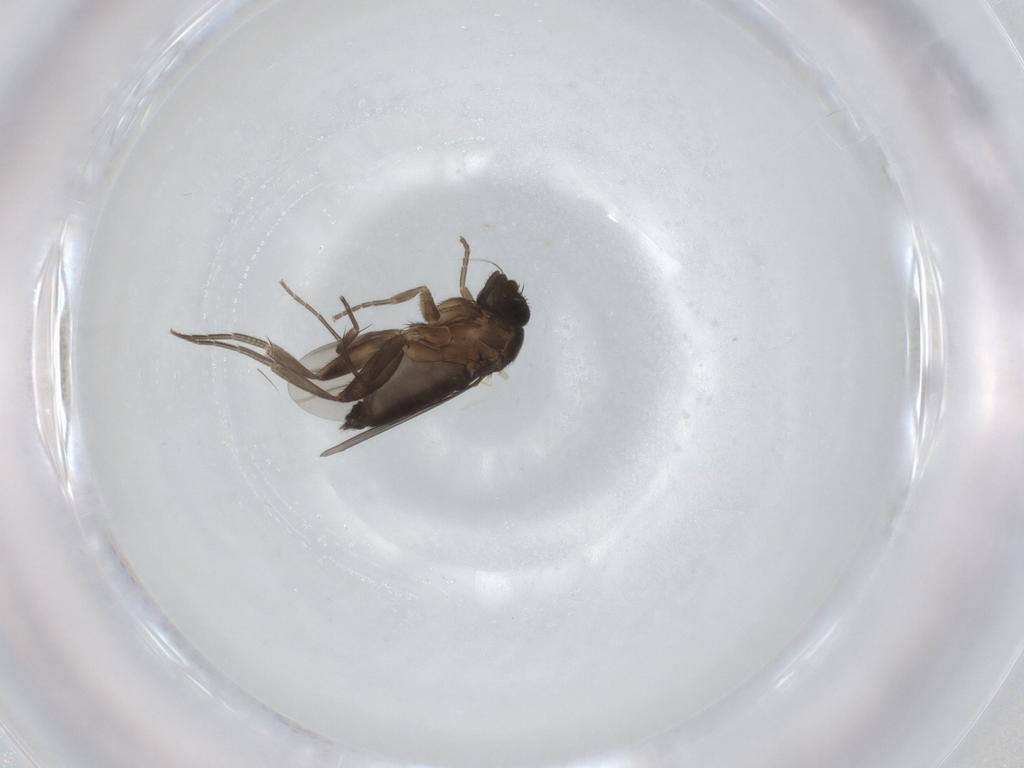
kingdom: Animalia
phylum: Arthropoda
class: Insecta
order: Diptera
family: Phoridae
